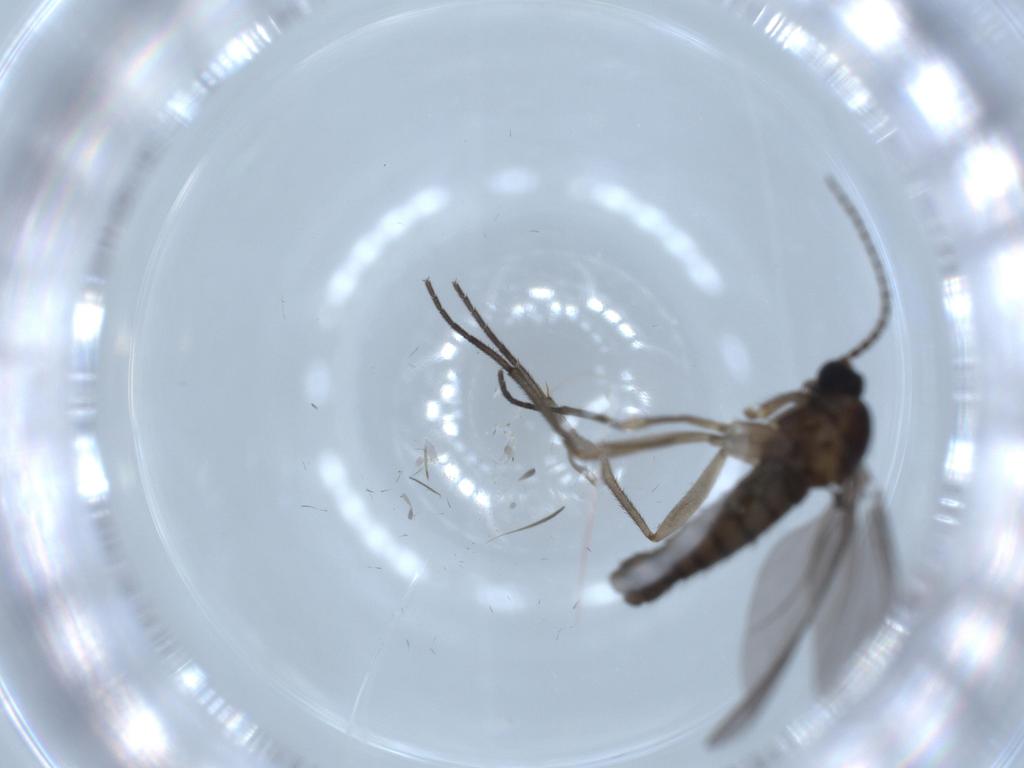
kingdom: Animalia
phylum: Arthropoda
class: Insecta
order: Diptera
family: Sciaridae
